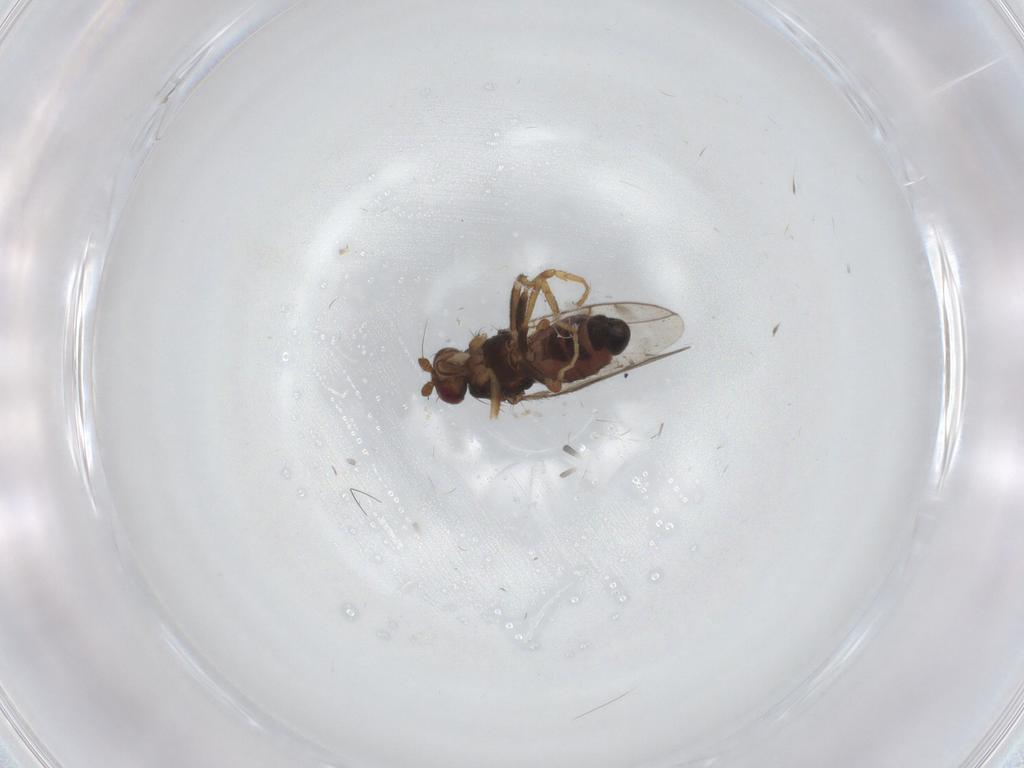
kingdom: Animalia
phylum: Arthropoda
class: Insecta
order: Diptera
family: Sphaeroceridae
